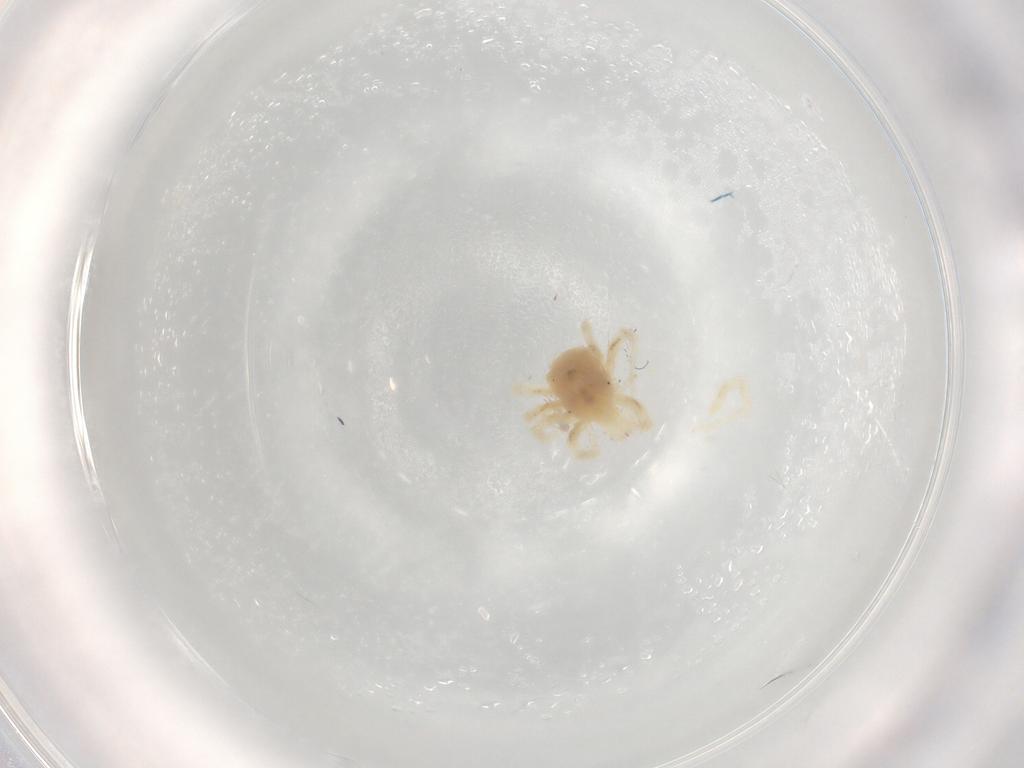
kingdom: Animalia
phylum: Arthropoda
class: Arachnida
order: Trombidiformes
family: Anystidae
